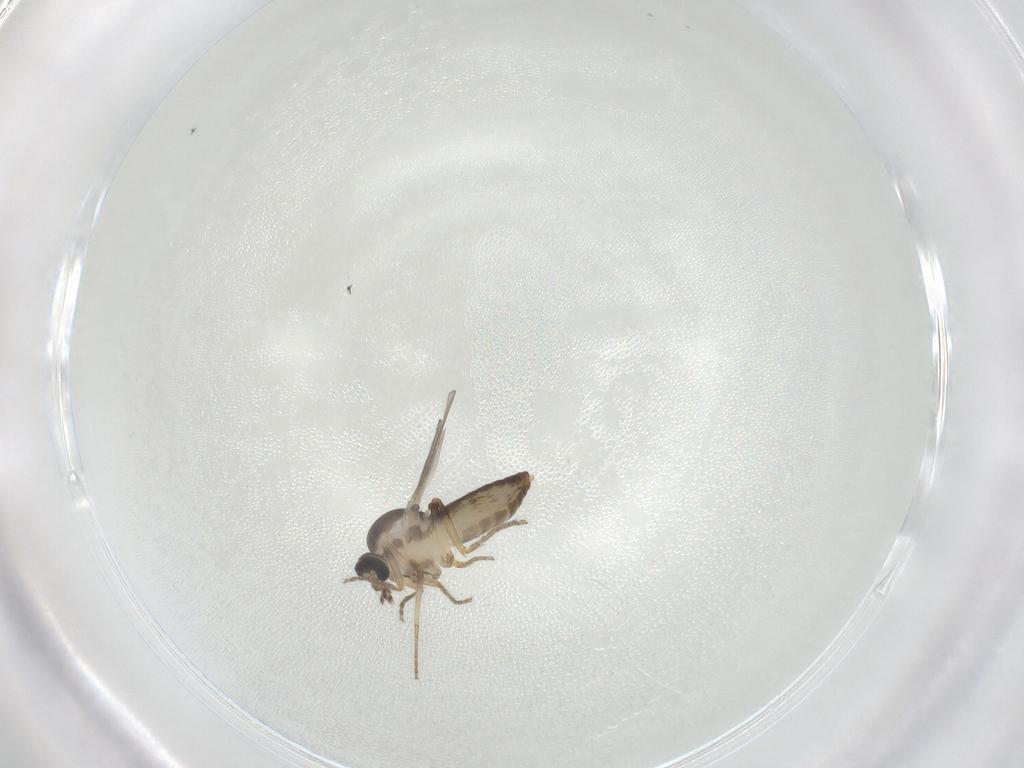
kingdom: Animalia
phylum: Arthropoda
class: Insecta
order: Diptera
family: Ceratopogonidae
